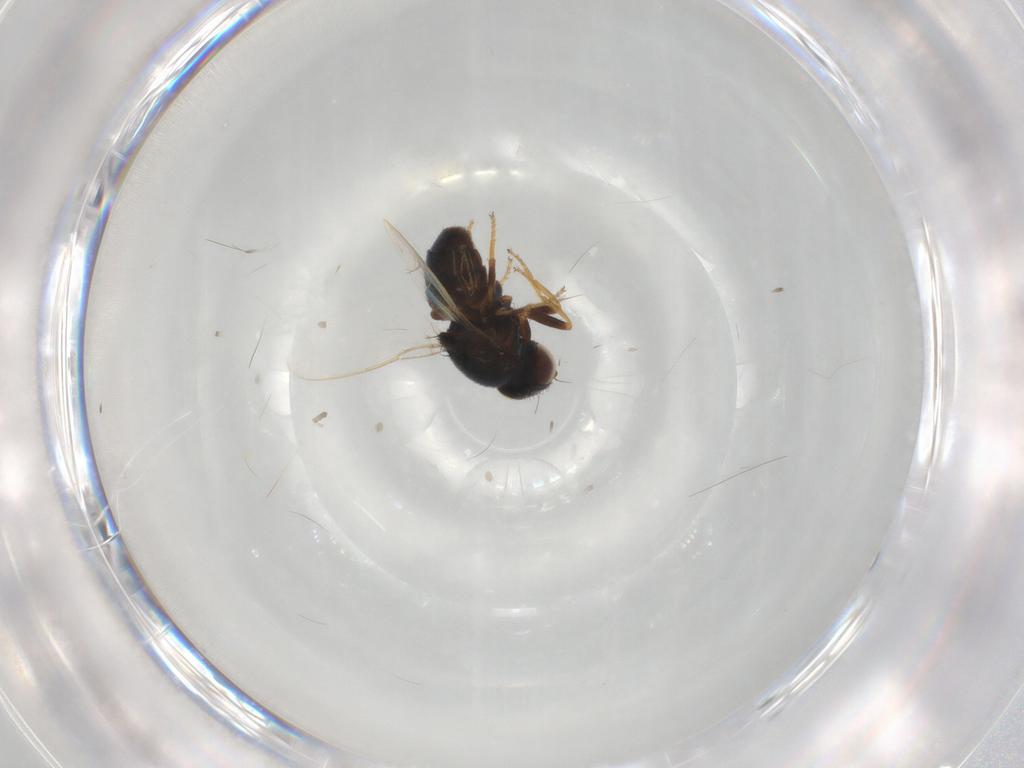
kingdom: Animalia
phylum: Arthropoda
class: Insecta
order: Diptera
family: Chloropidae
